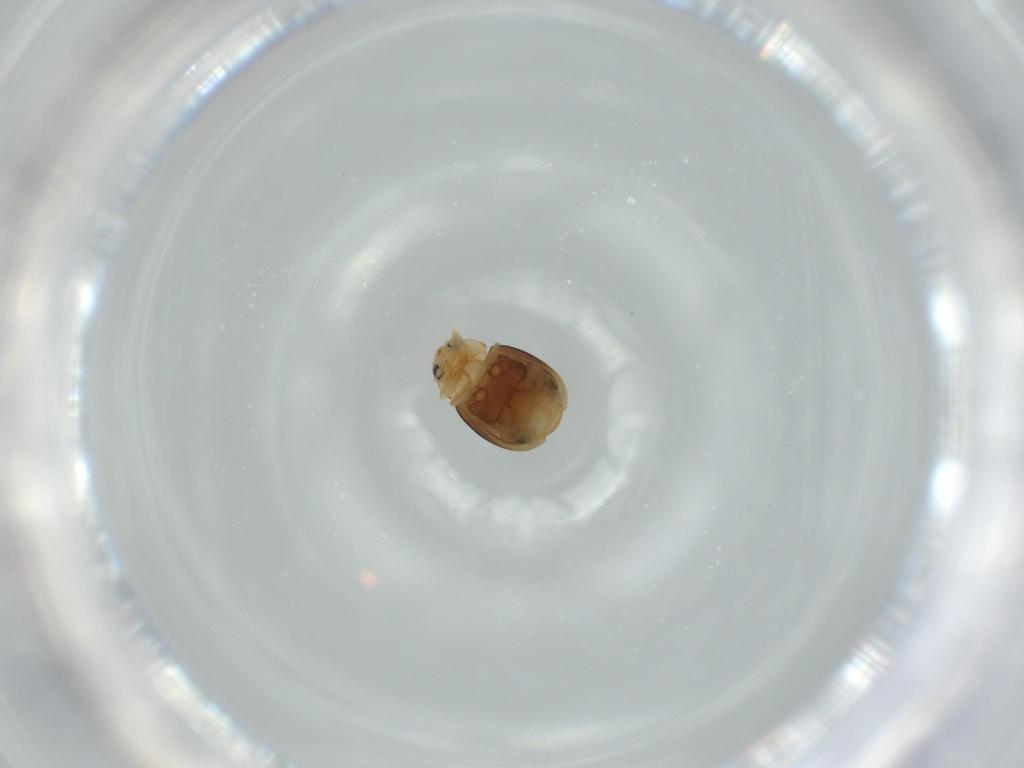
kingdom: Animalia
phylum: Arthropoda
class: Insecta
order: Coleoptera
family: Coccinellidae
